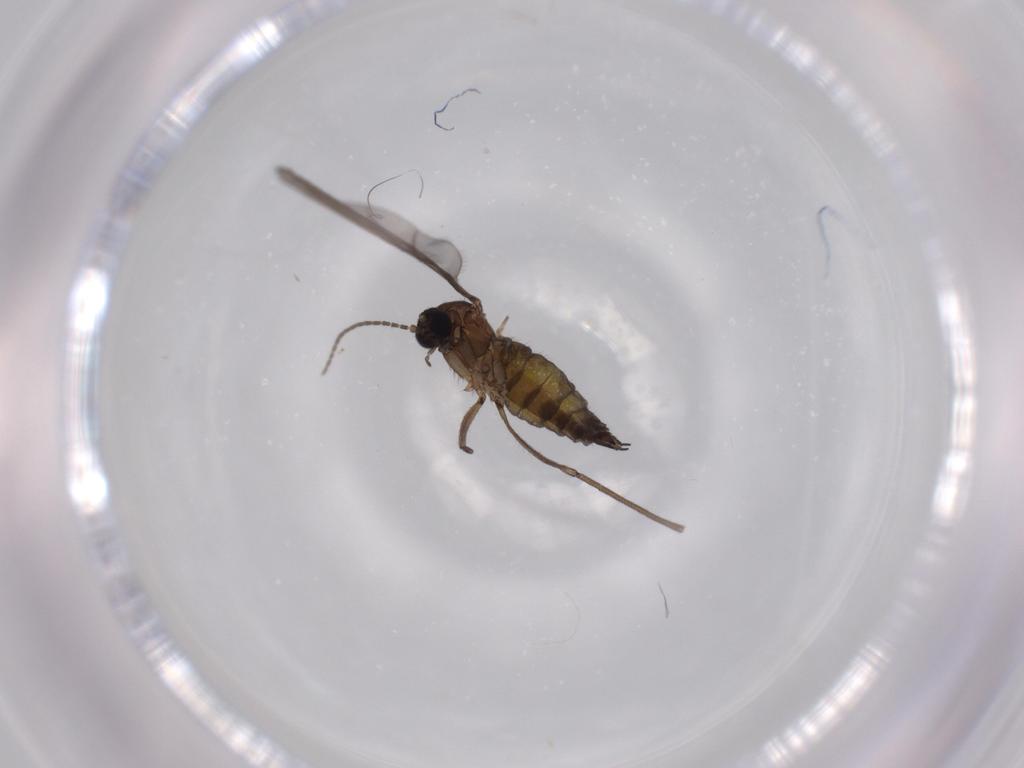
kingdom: Animalia
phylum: Arthropoda
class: Insecta
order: Diptera
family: Sciaridae
